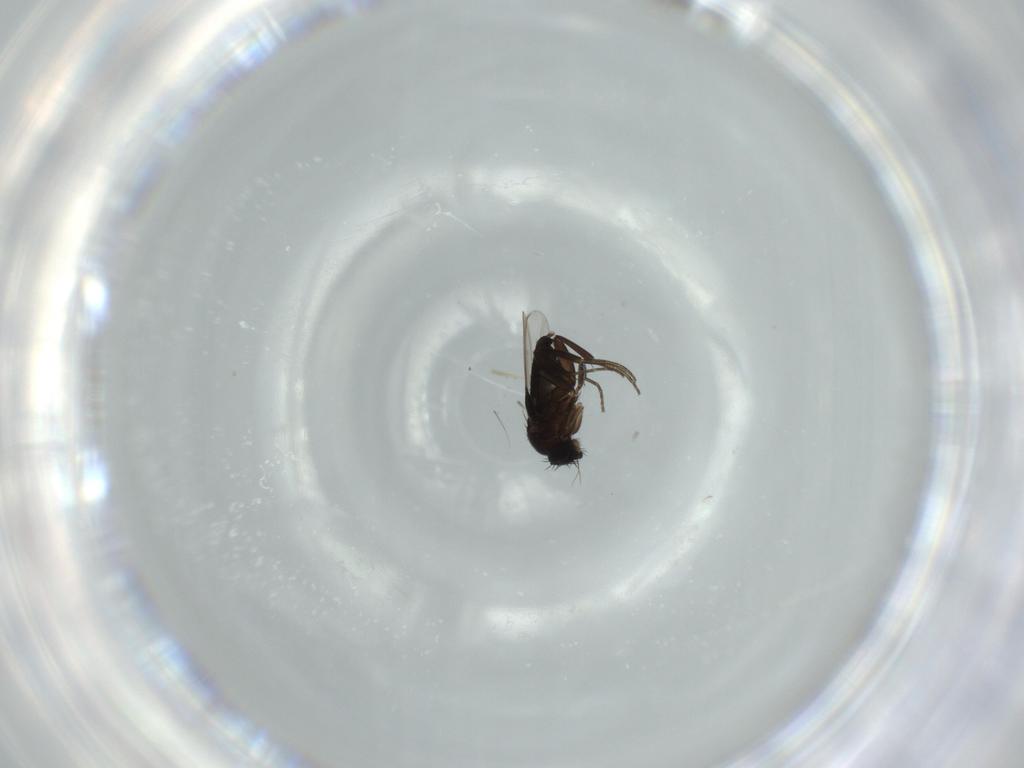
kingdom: Animalia
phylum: Arthropoda
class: Insecta
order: Diptera
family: Phoridae
